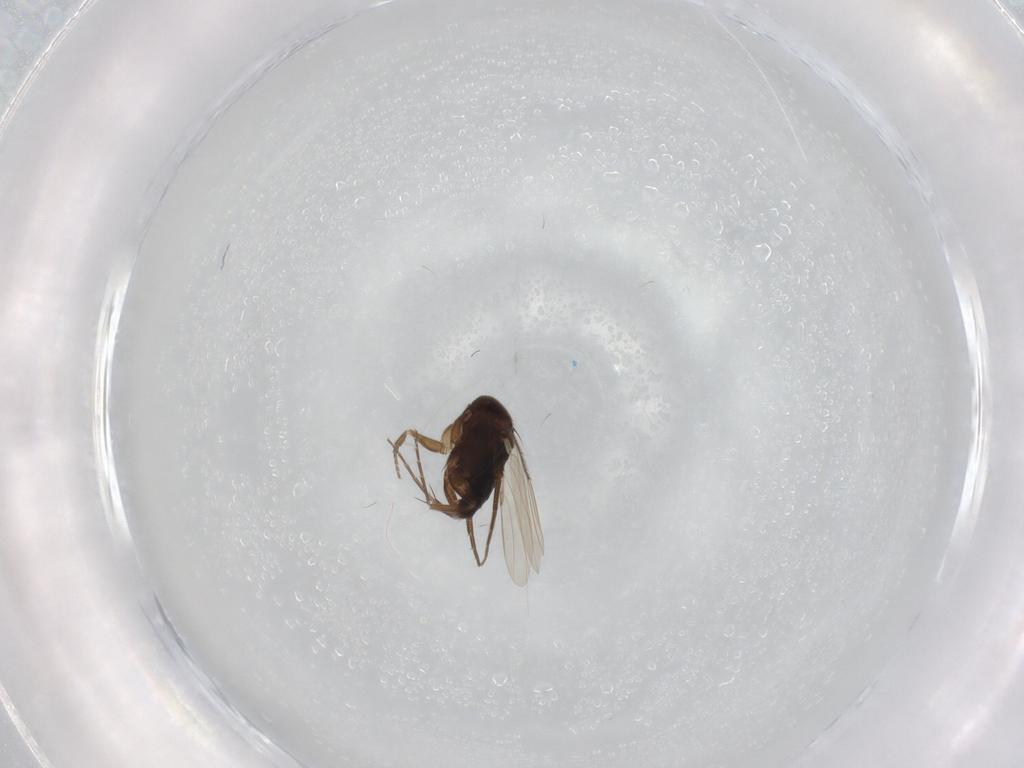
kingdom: Animalia
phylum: Arthropoda
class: Insecta
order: Diptera
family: Phoridae
